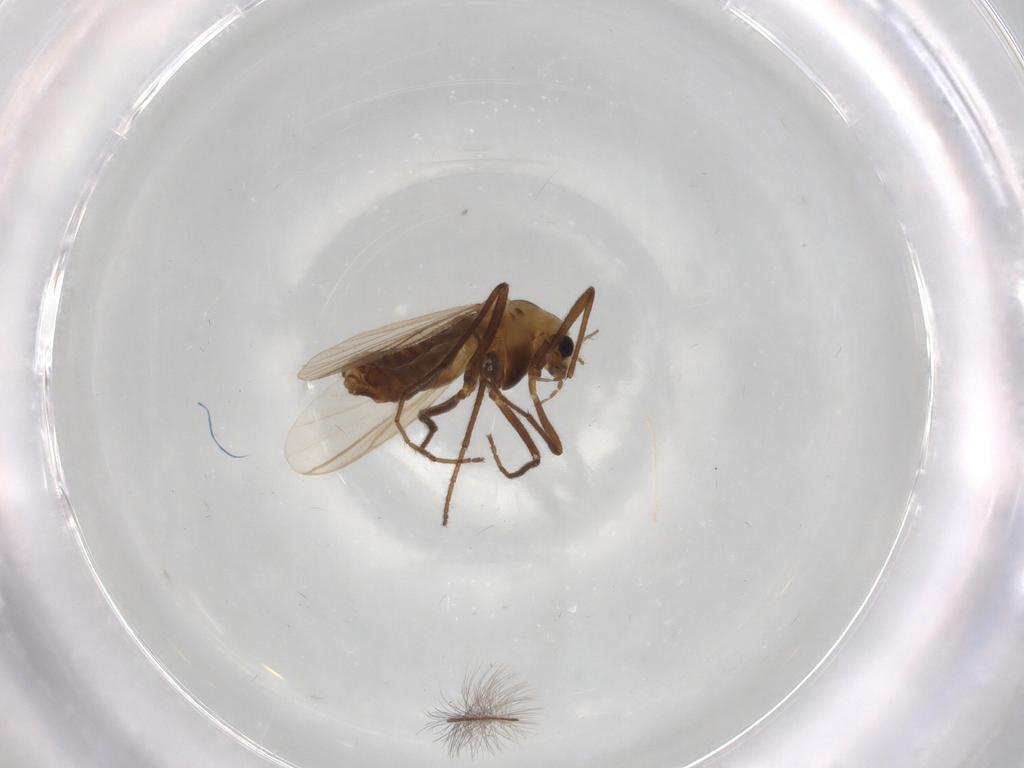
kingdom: Animalia
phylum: Arthropoda
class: Insecta
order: Diptera
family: Chironomidae
